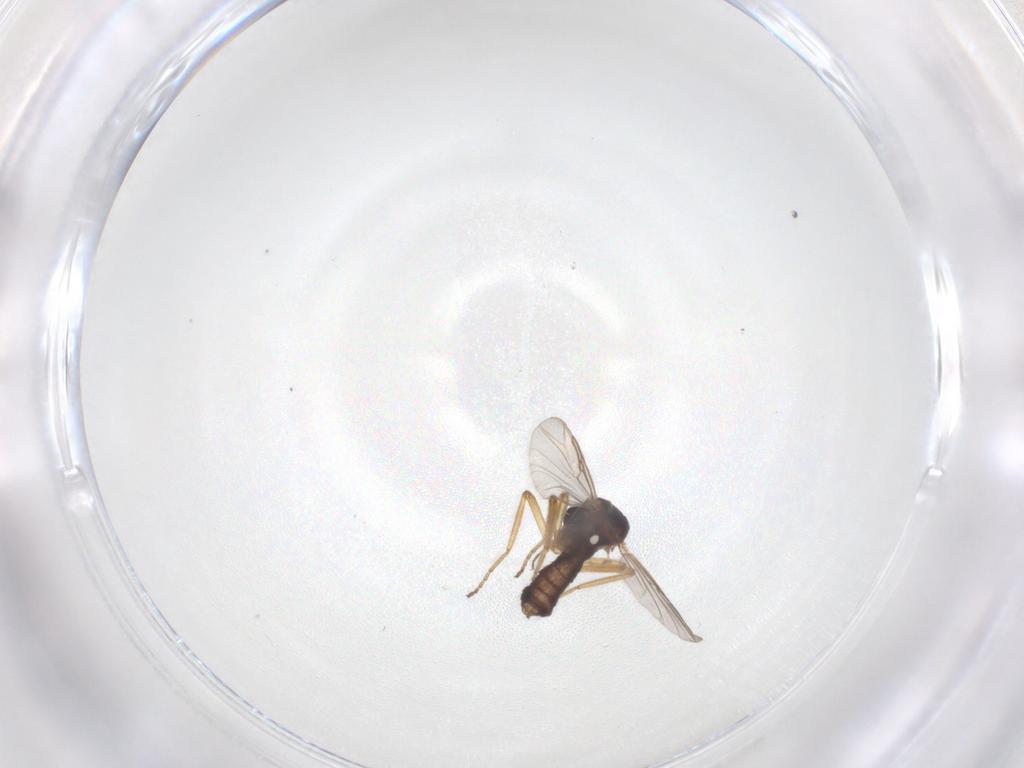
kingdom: Animalia
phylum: Arthropoda
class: Insecta
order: Diptera
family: Ceratopogonidae
